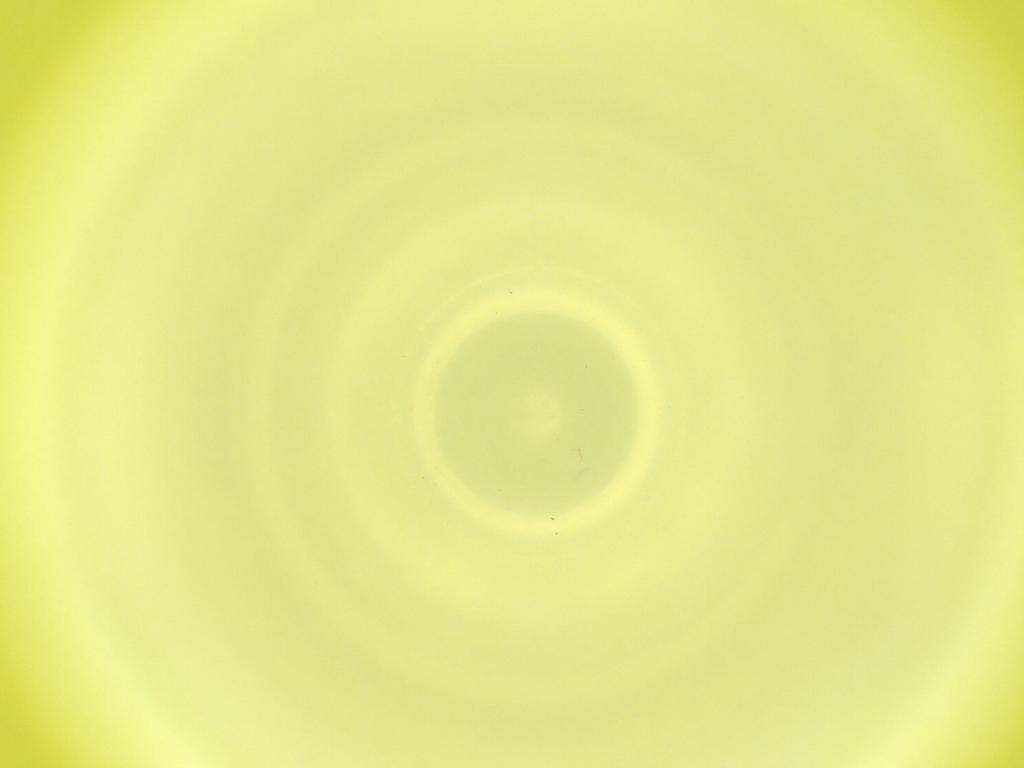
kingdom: Animalia
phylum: Arthropoda
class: Insecta
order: Diptera
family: Cecidomyiidae
